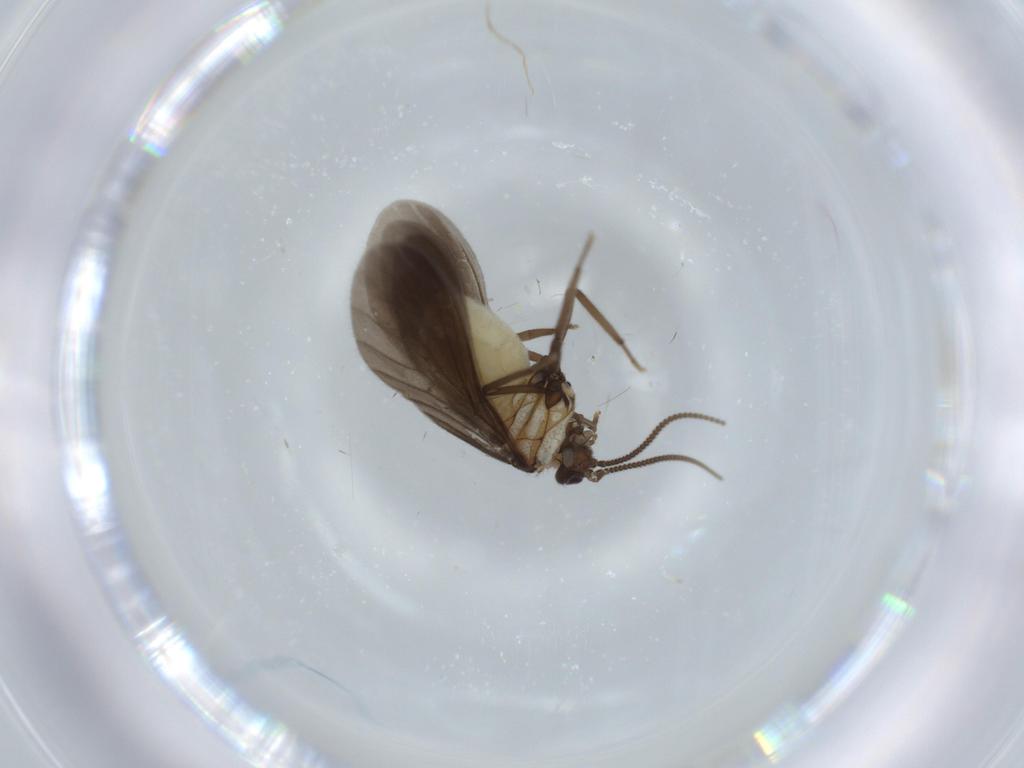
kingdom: Animalia
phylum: Arthropoda
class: Insecta
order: Neuroptera
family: Coniopterygidae
